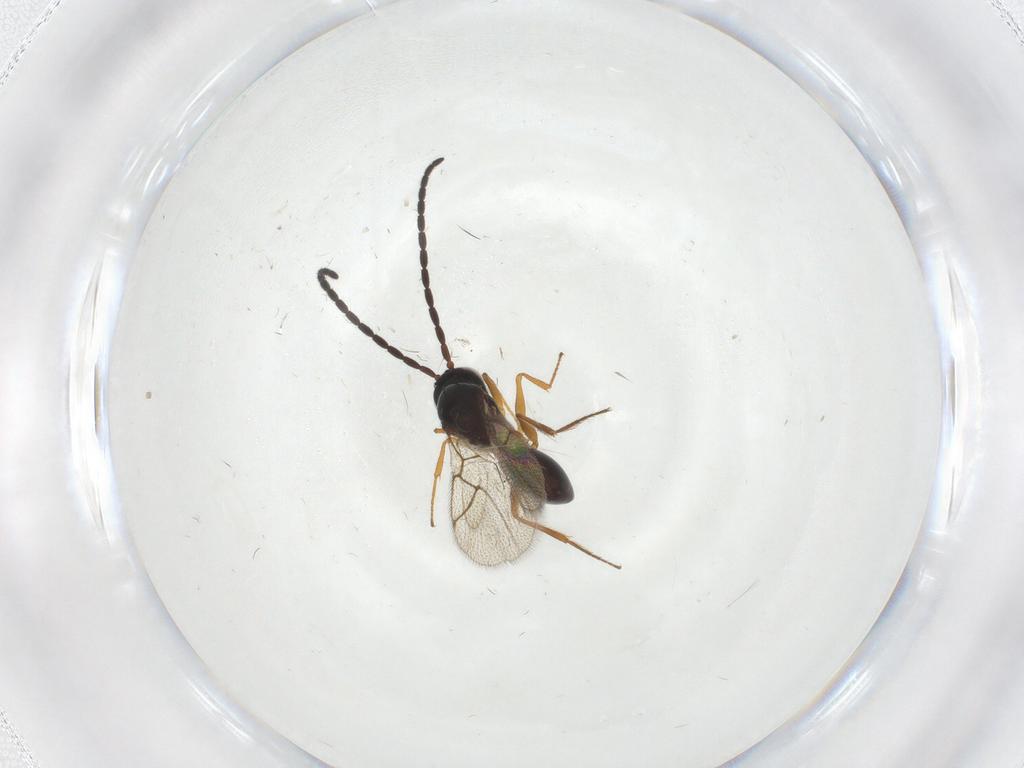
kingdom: Animalia
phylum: Arthropoda
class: Insecta
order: Hymenoptera
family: Figitidae
